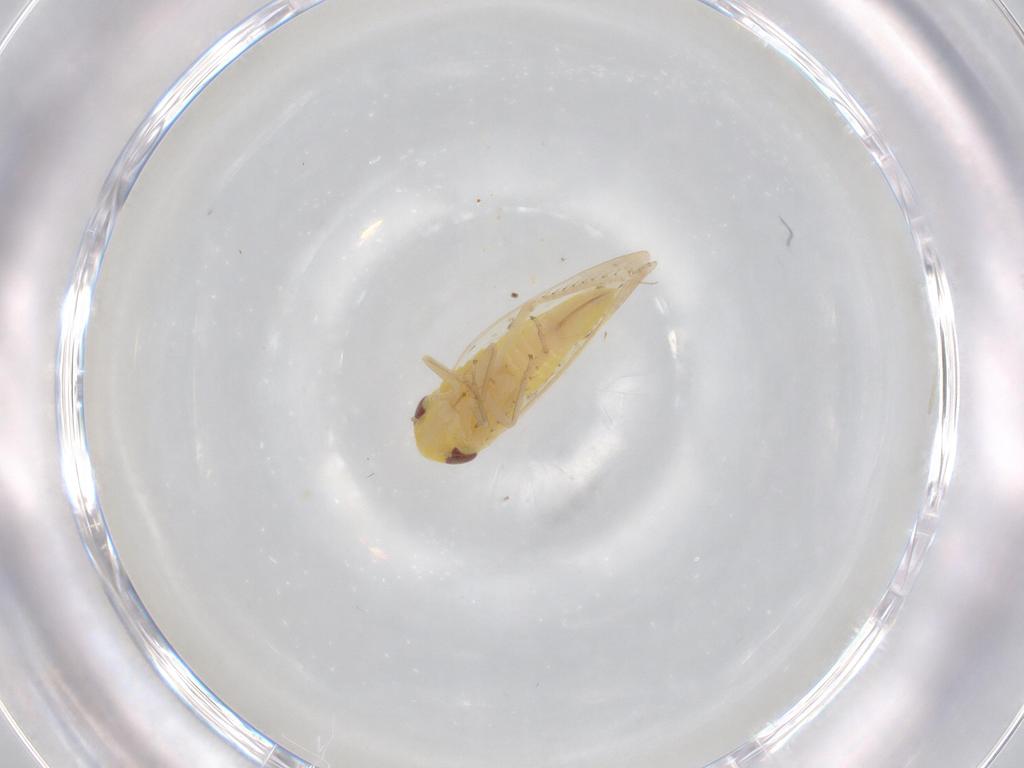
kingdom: Animalia
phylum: Arthropoda
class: Insecta
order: Hemiptera
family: Cicadellidae
